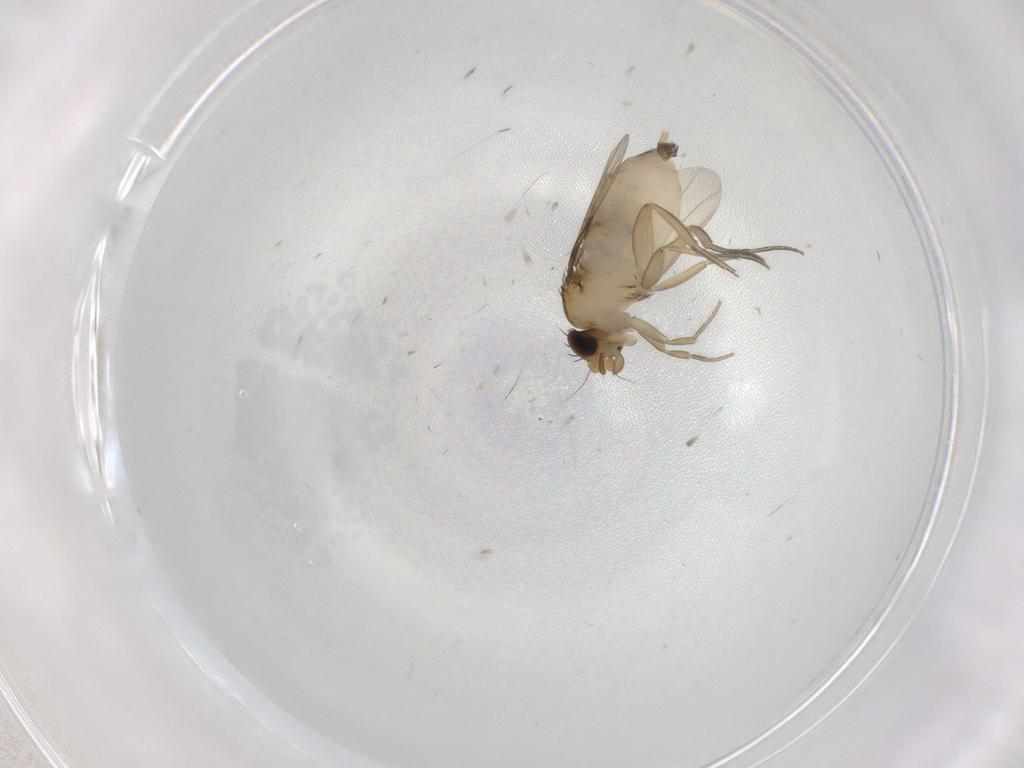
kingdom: Animalia
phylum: Arthropoda
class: Insecta
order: Diptera
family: Phoridae
